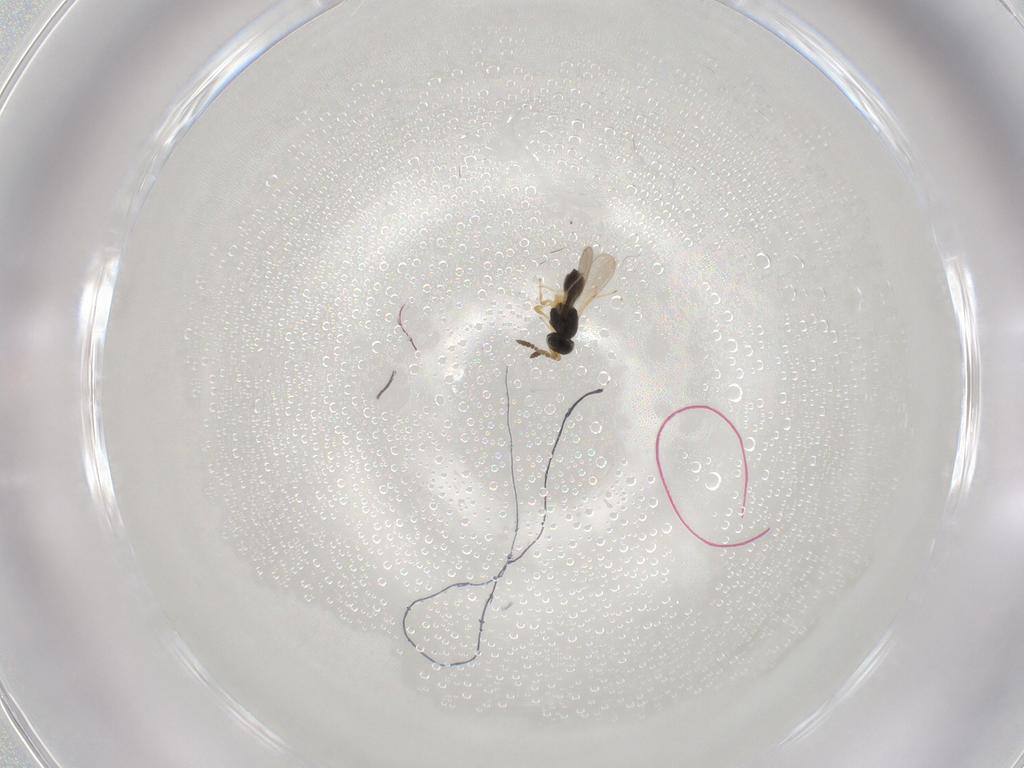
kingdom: Animalia
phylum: Arthropoda
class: Insecta
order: Hymenoptera
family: Scelionidae
